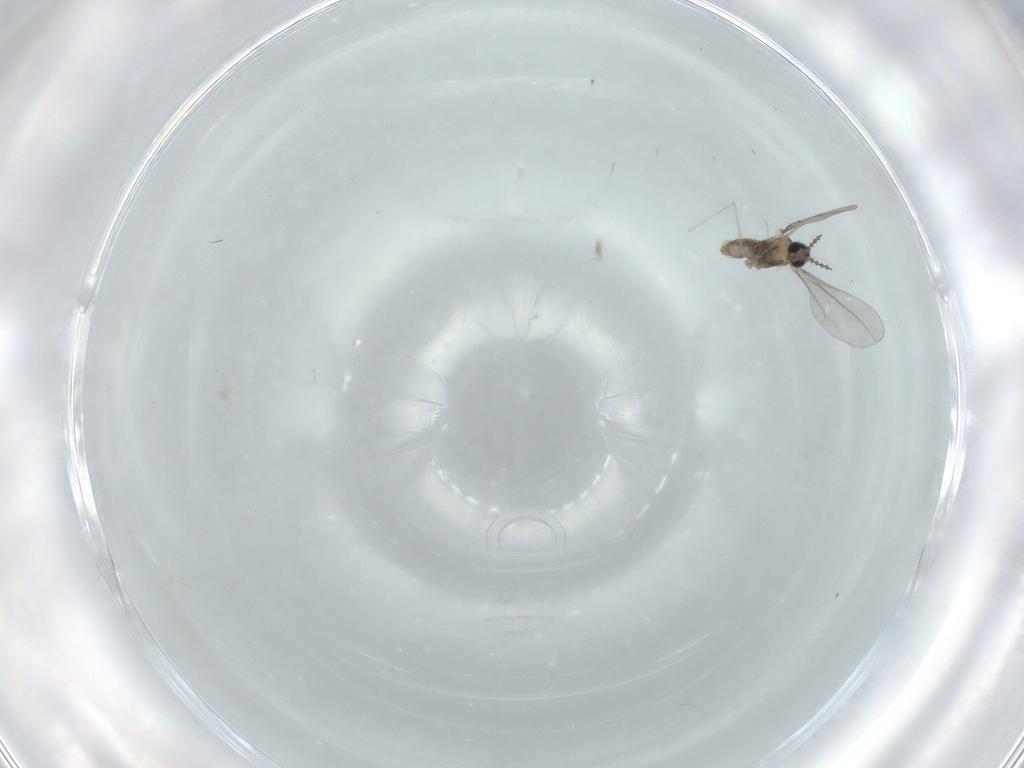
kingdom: Animalia
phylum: Arthropoda
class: Insecta
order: Diptera
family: Cecidomyiidae
